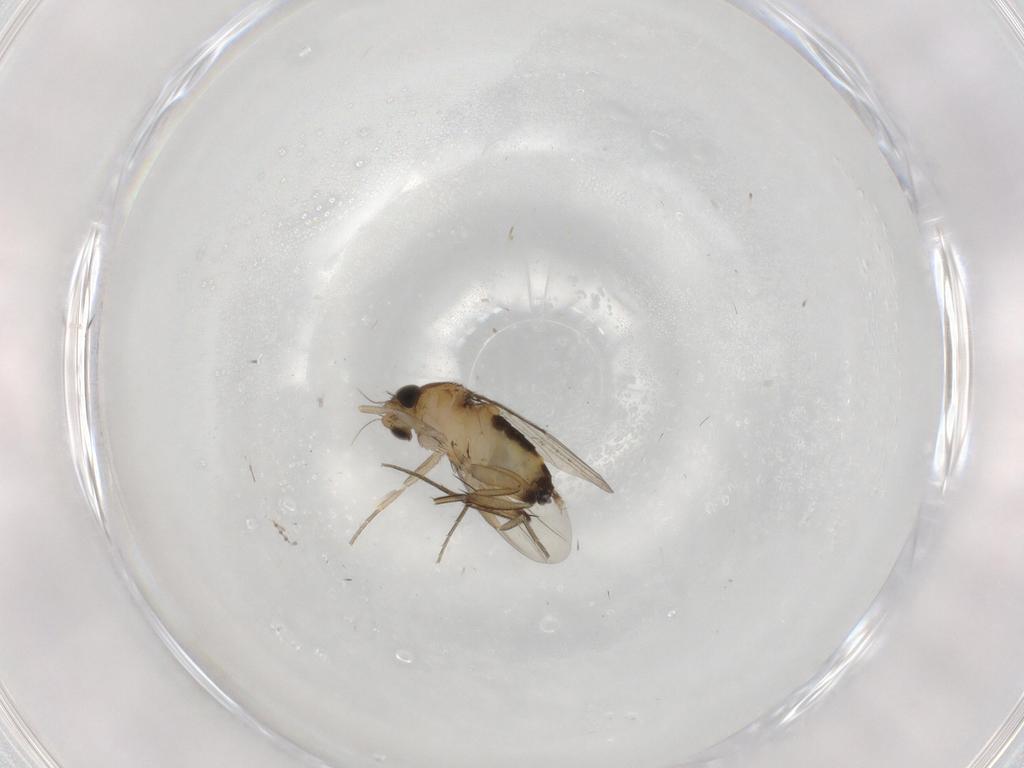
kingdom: Animalia
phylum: Arthropoda
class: Insecta
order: Diptera
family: Phoridae
